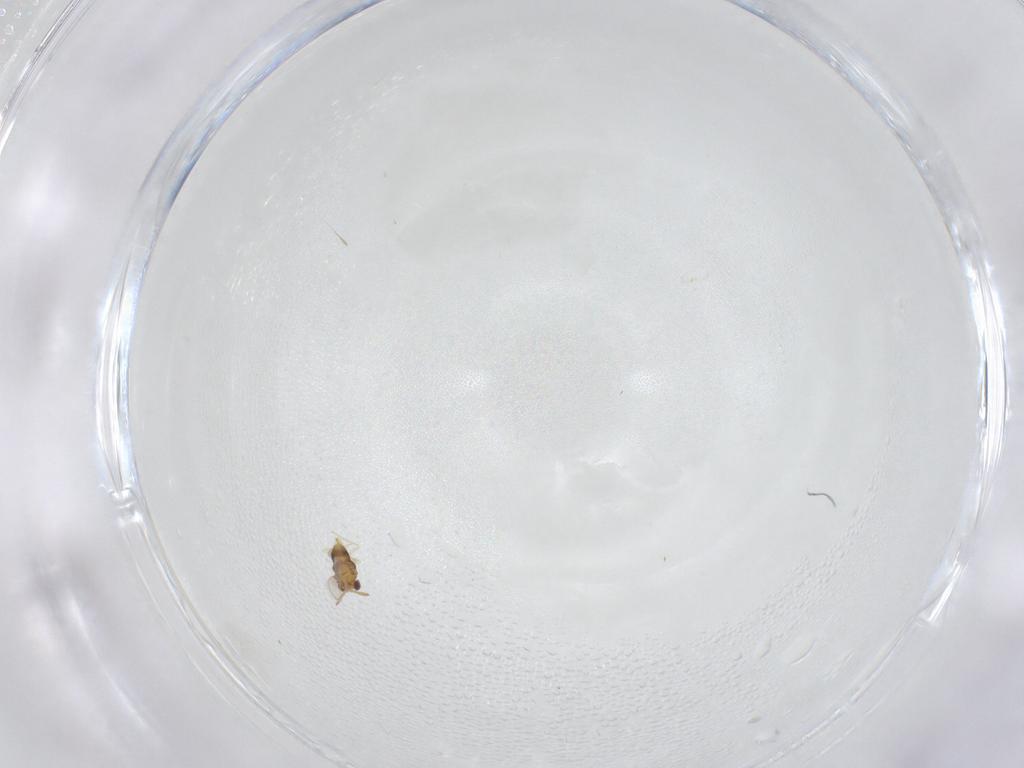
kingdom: Animalia
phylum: Arthropoda
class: Insecta
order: Hymenoptera
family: Aphelinidae
